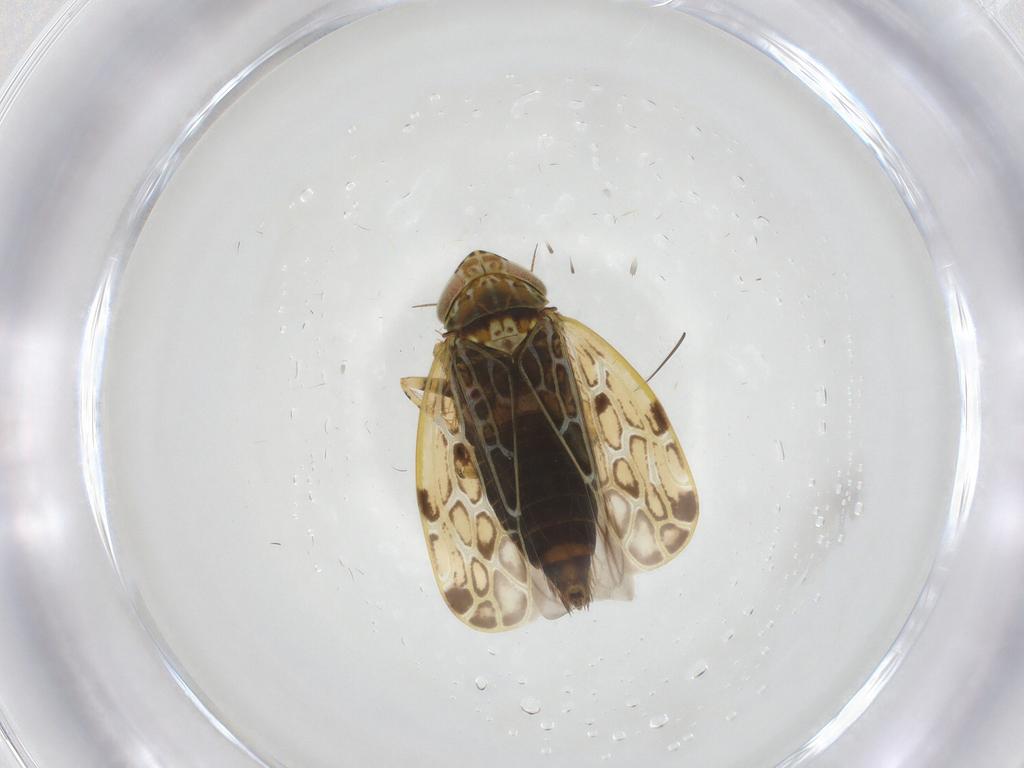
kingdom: Animalia
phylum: Arthropoda
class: Insecta
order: Hemiptera
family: Cicadellidae
